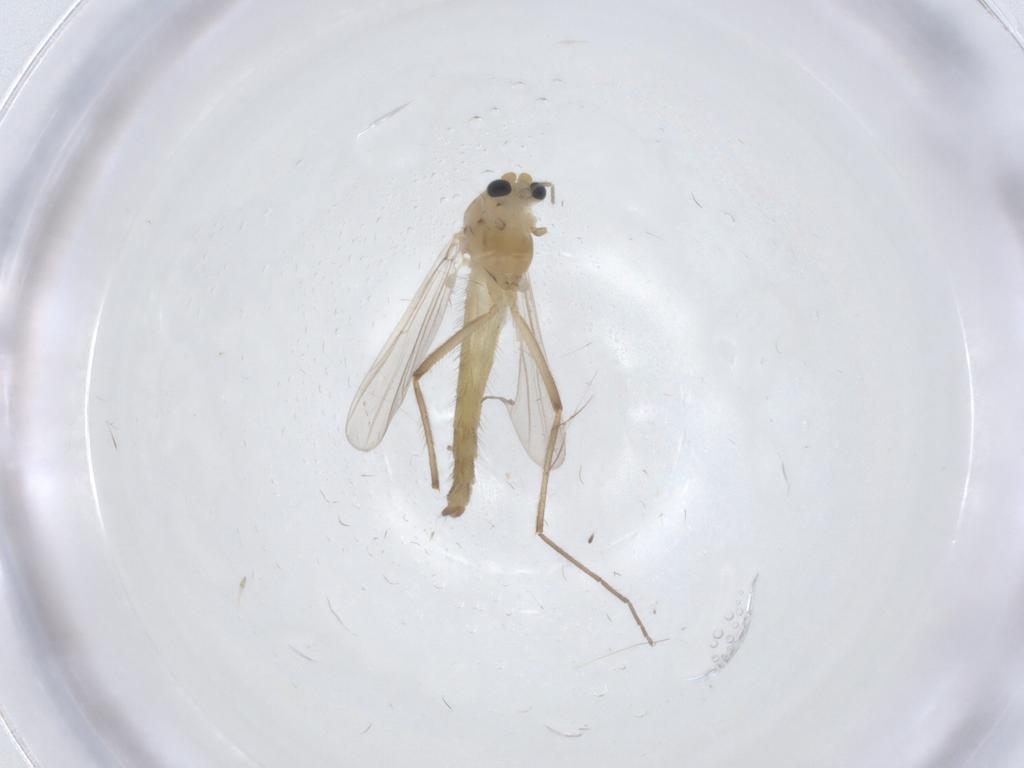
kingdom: Animalia
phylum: Arthropoda
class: Insecta
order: Diptera
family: Chironomidae
